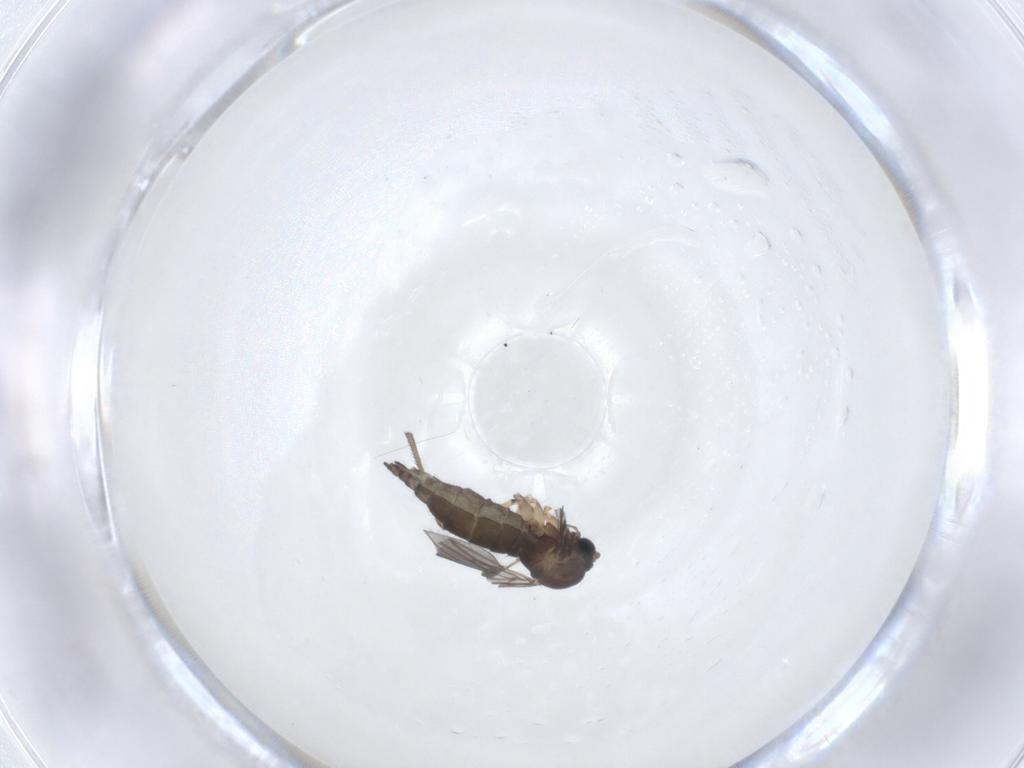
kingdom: Animalia
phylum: Arthropoda
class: Insecta
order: Diptera
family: Sciaridae
